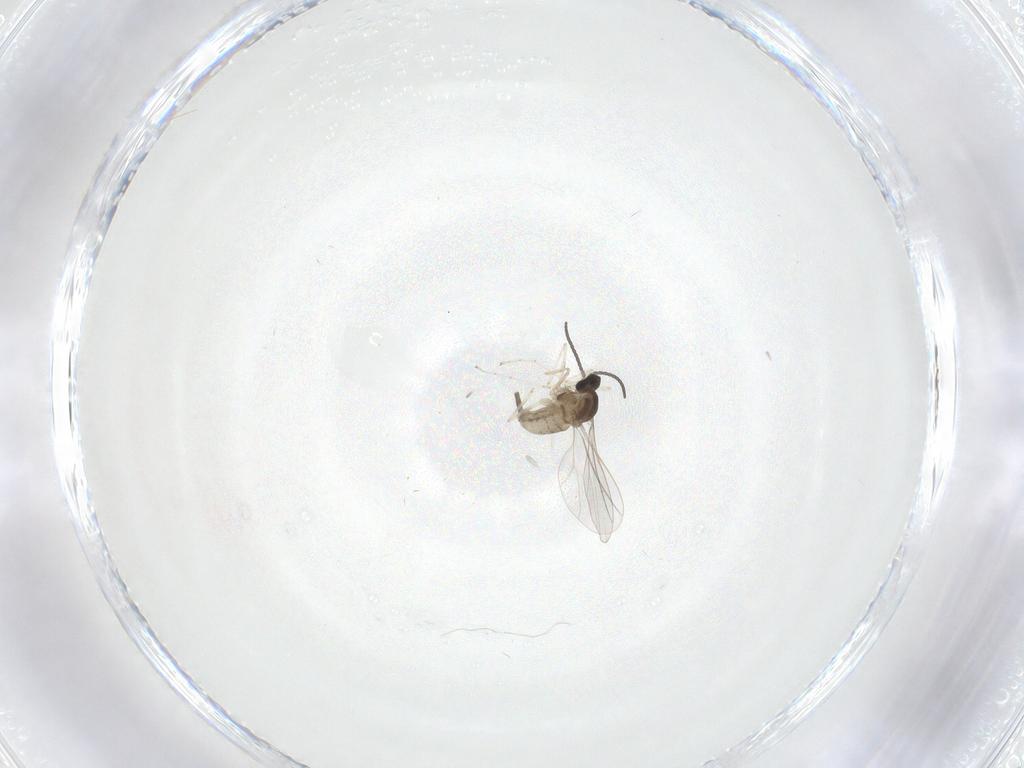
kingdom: Animalia
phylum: Arthropoda
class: Insecta
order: Diptera
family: Cecidomyiidae
